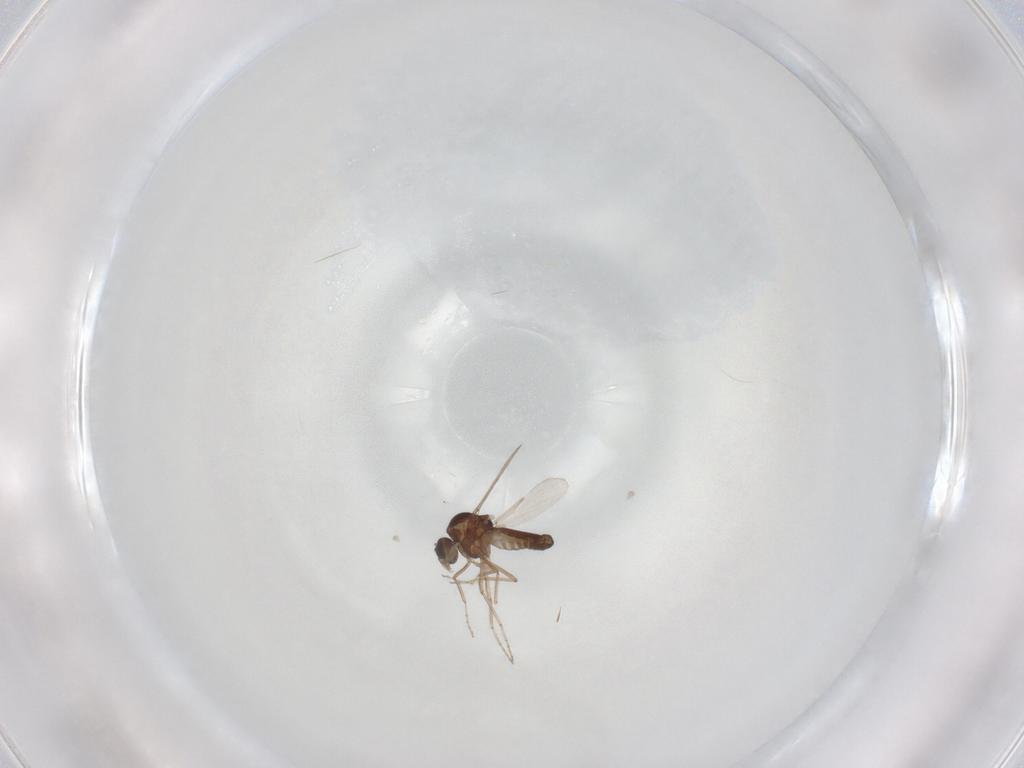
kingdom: Animalia
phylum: Arthropoda
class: Insecta
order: Diptera
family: Ceratopogonidae
